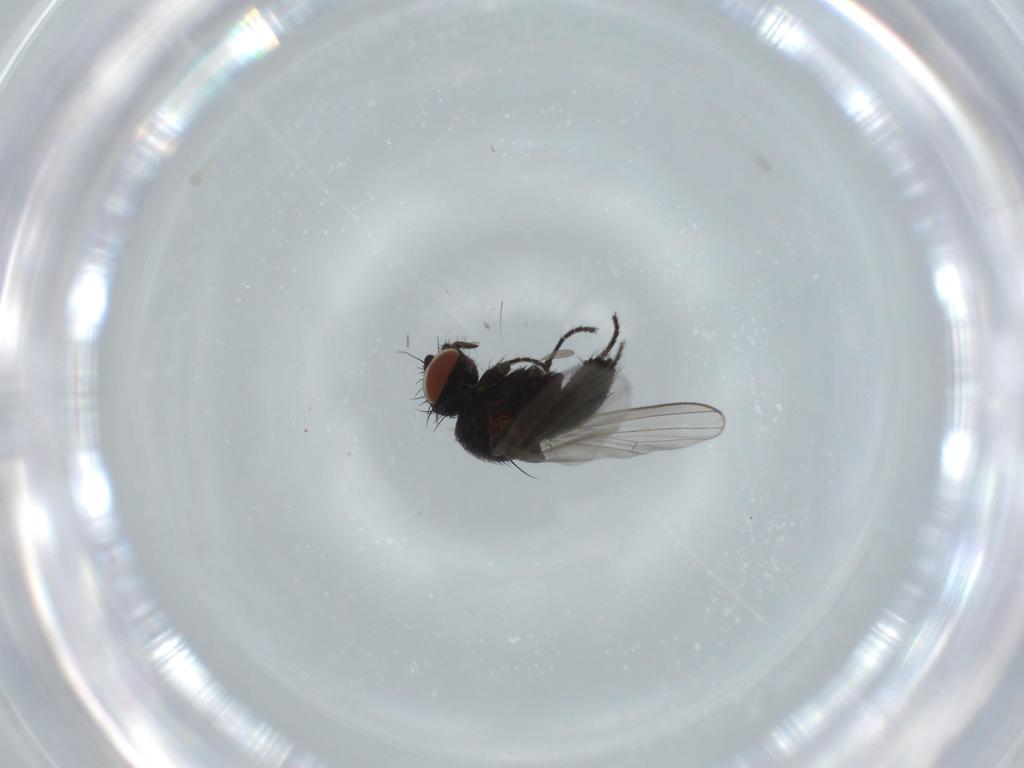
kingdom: Animalia
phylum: Arthropoda
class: Insecta
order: Diptera
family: Milichiidae
